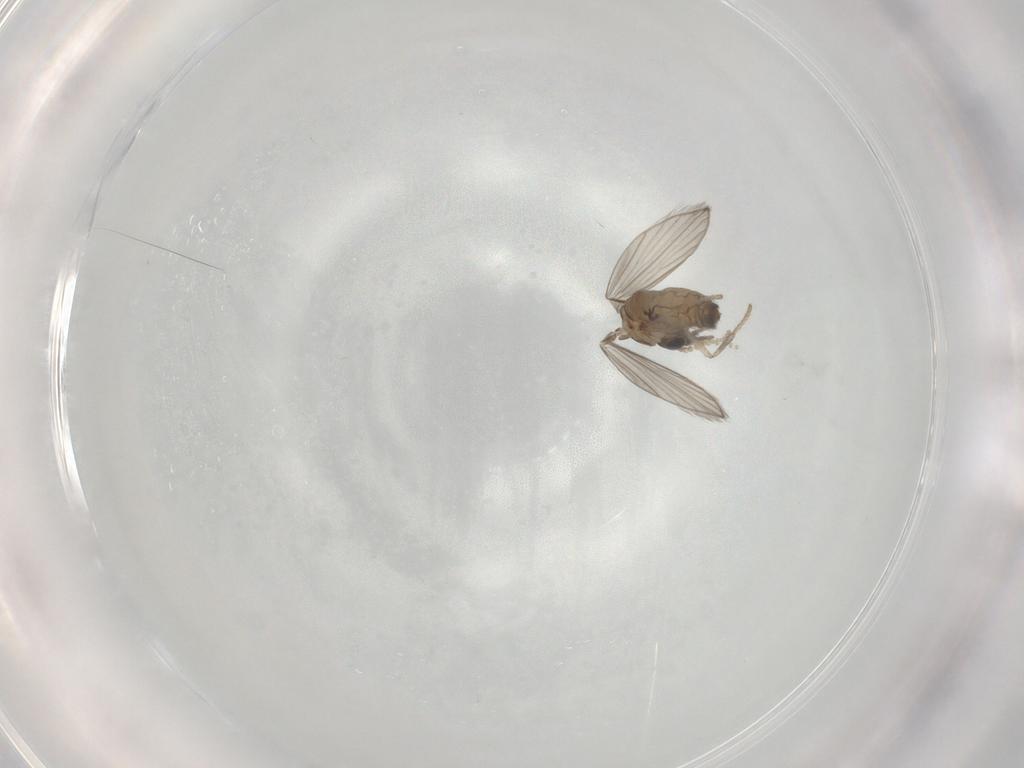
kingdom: Animalia
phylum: Arthropoda
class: Insecta
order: Diptera
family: Psychodidae
